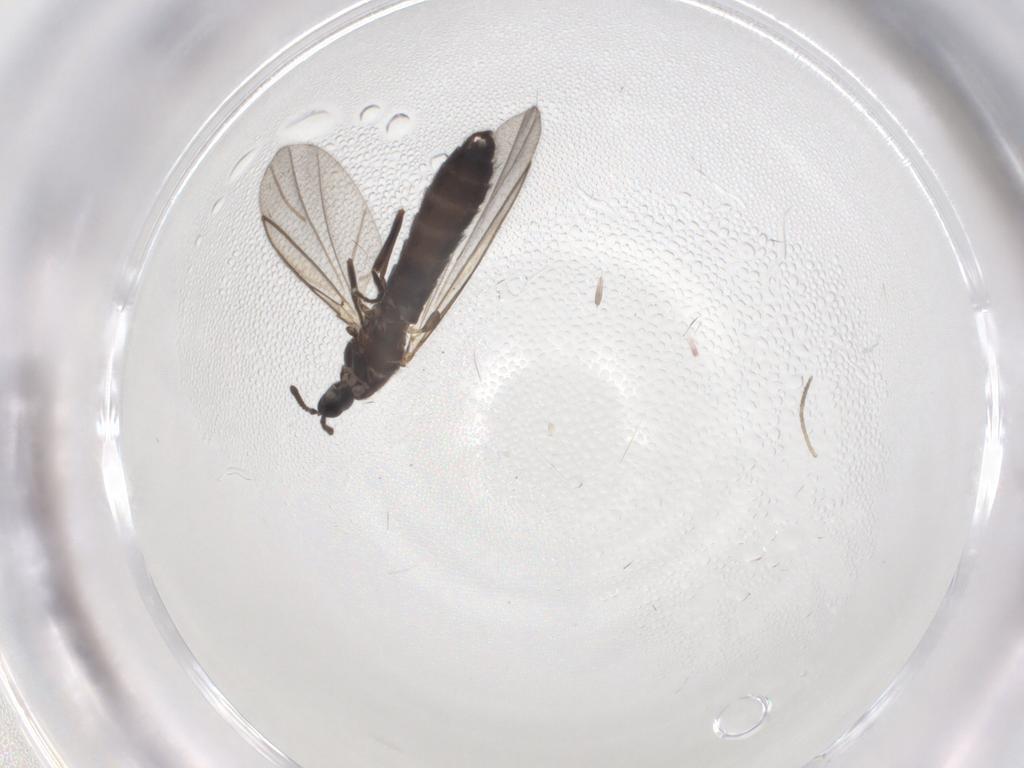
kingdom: Animalia
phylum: Arthropoda
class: Insecta
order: Diptera
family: Scatopsidae
